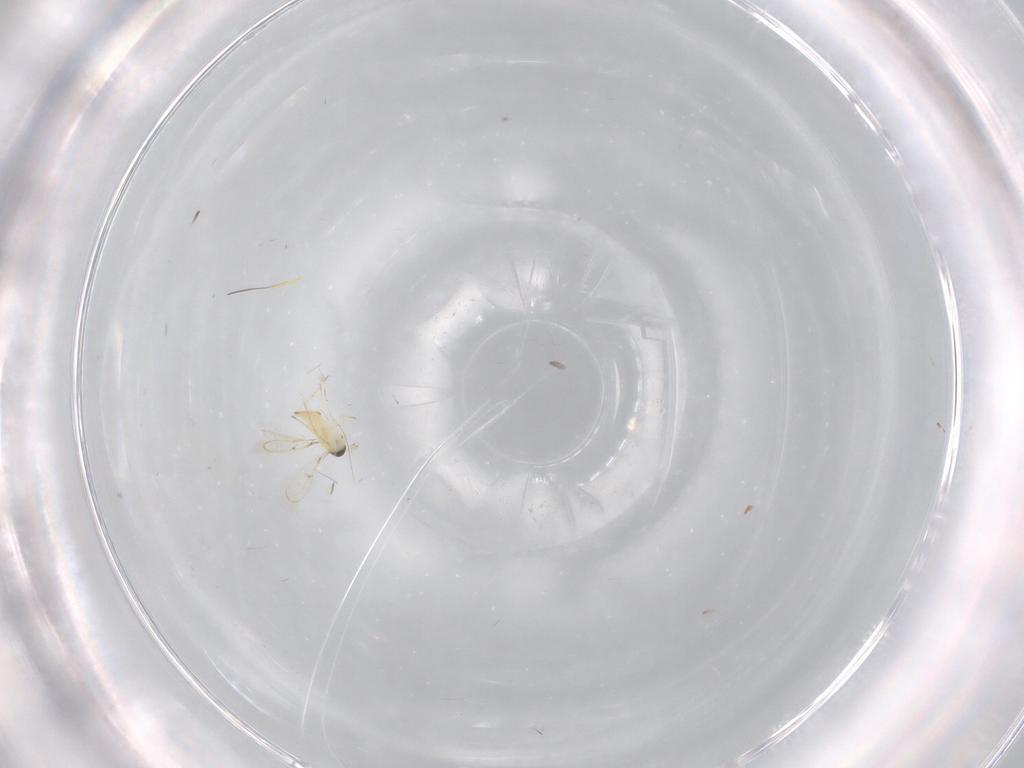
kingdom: Animalia
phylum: Arthropoda
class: Insecta
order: Hymenoptera
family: Trichogrammatidae
